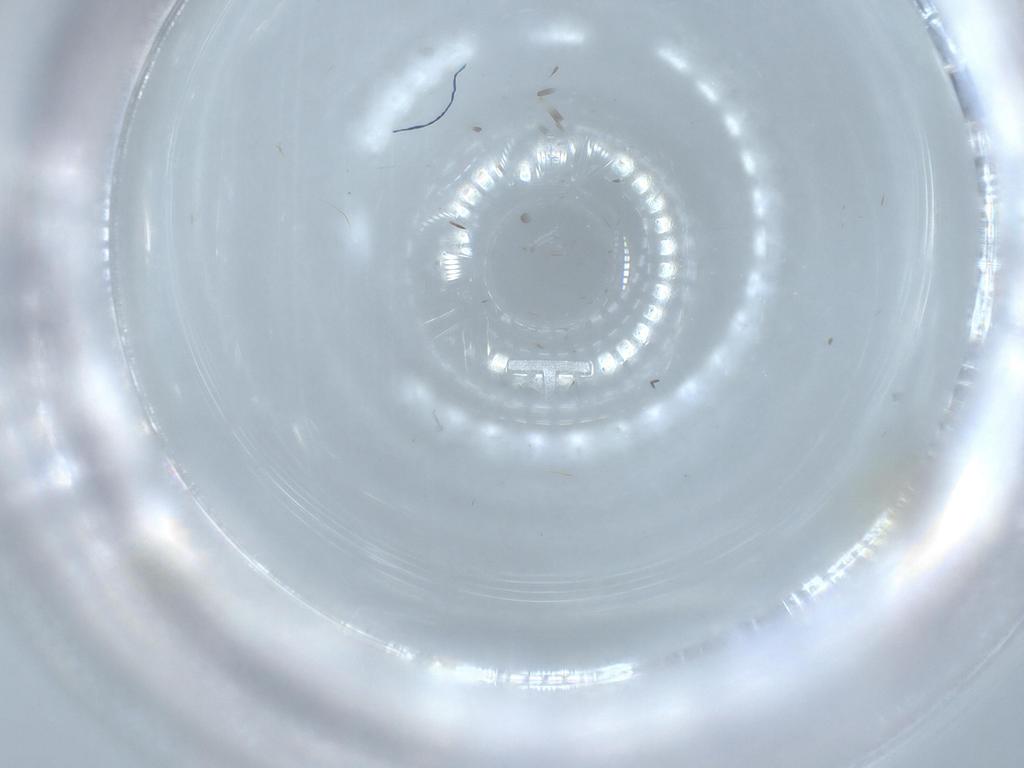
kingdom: Animalia
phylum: Arthropoda
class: Insecta
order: Diptera
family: Cecidomyiidae
